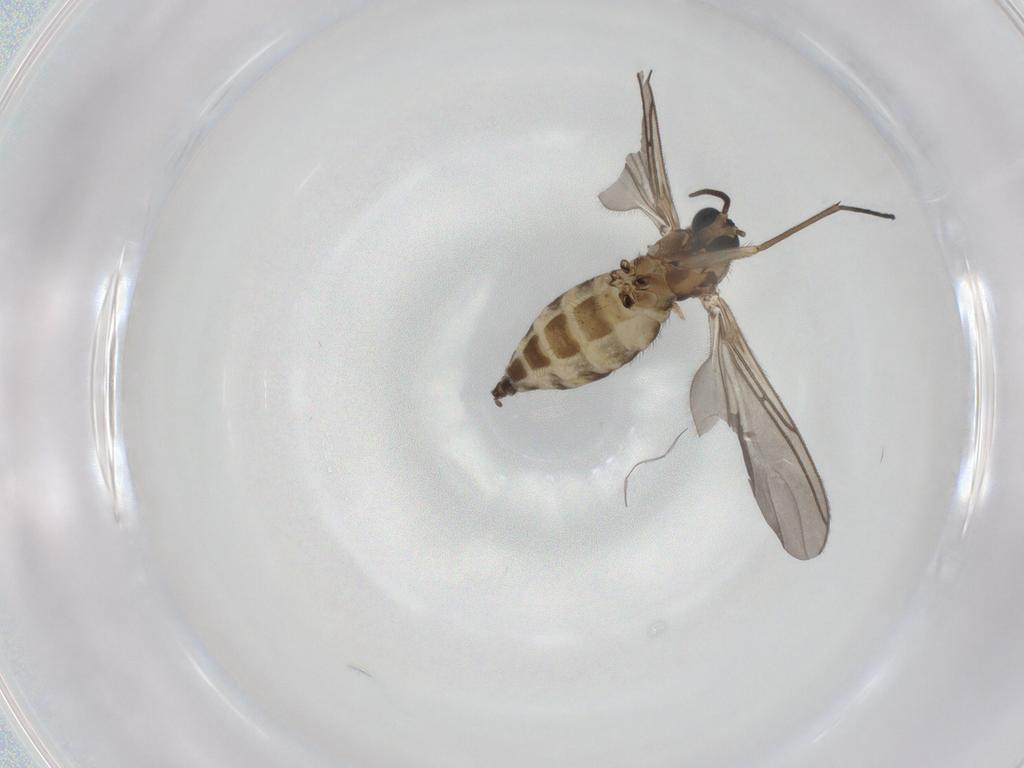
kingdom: Animalia
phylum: Arthropoda
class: Insecta
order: Diptera
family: Sciaridae
